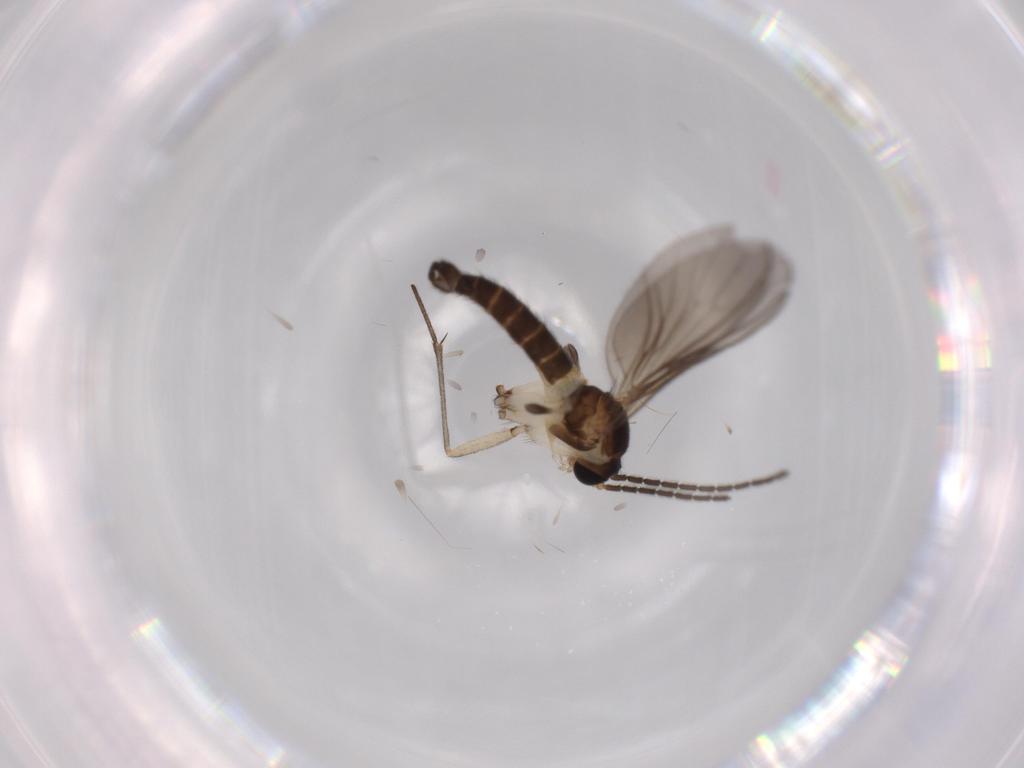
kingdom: Animalia
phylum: Arthropoda
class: Insecta
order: Diptera
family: Sciaridae
